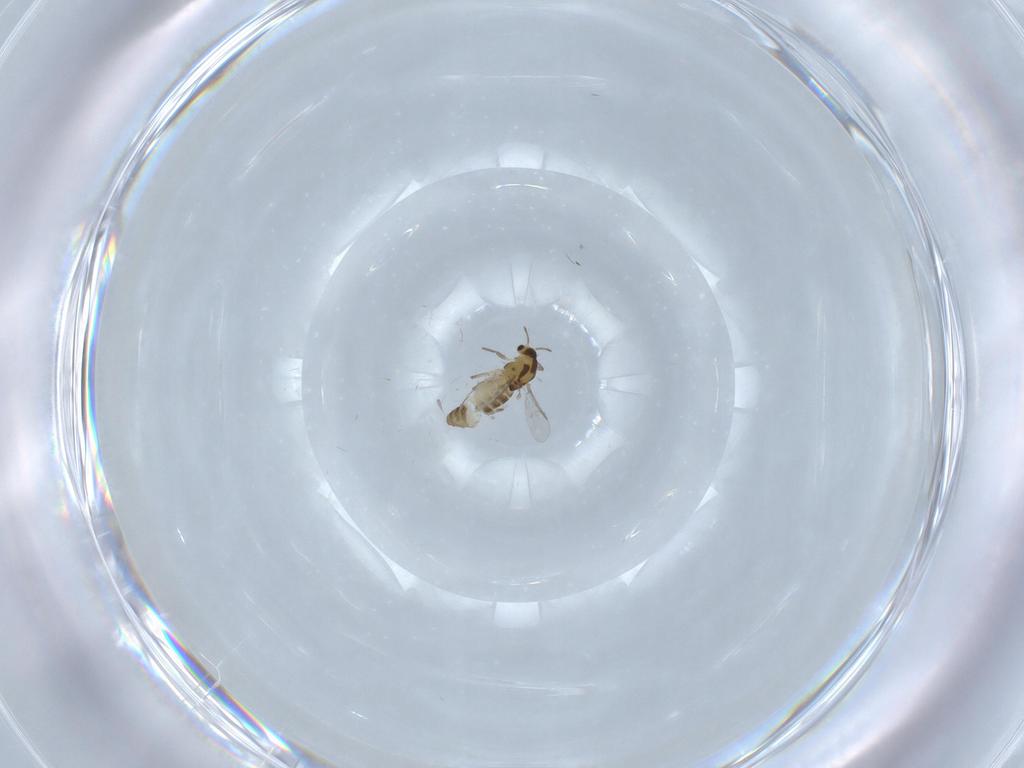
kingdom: Animalia
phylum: Arthropoda
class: Insecta
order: Diptera
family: Chironomidae
